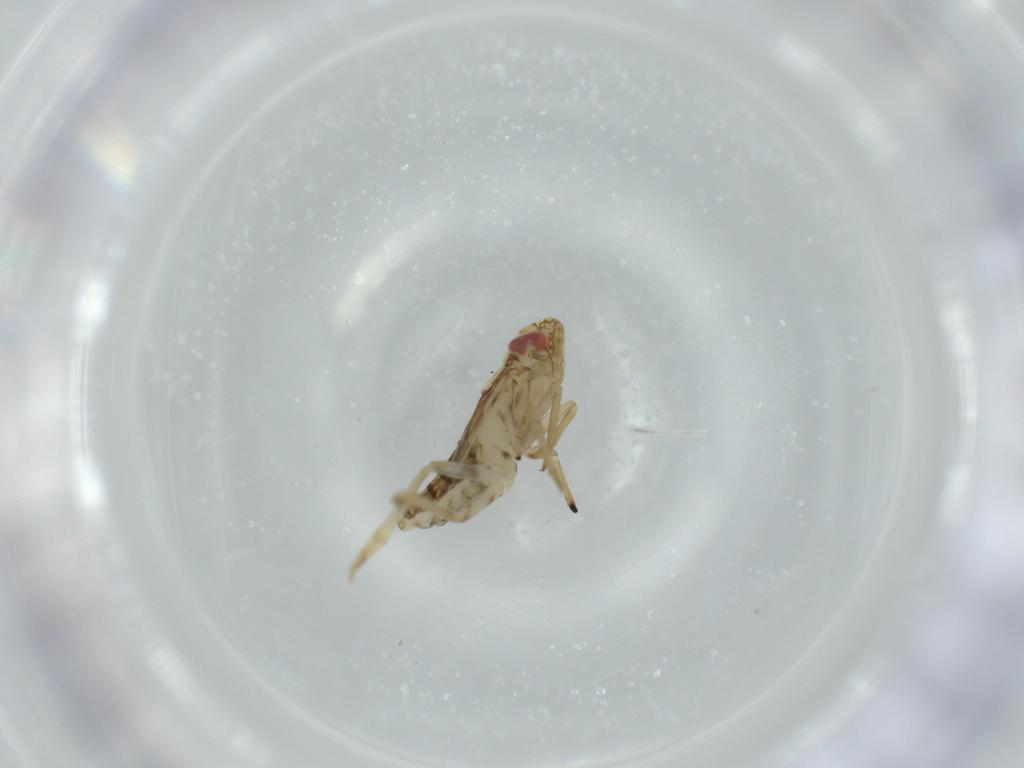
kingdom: Animalia
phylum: Arthropoda
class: Insecta
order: Hemiptera
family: Delphacidae
